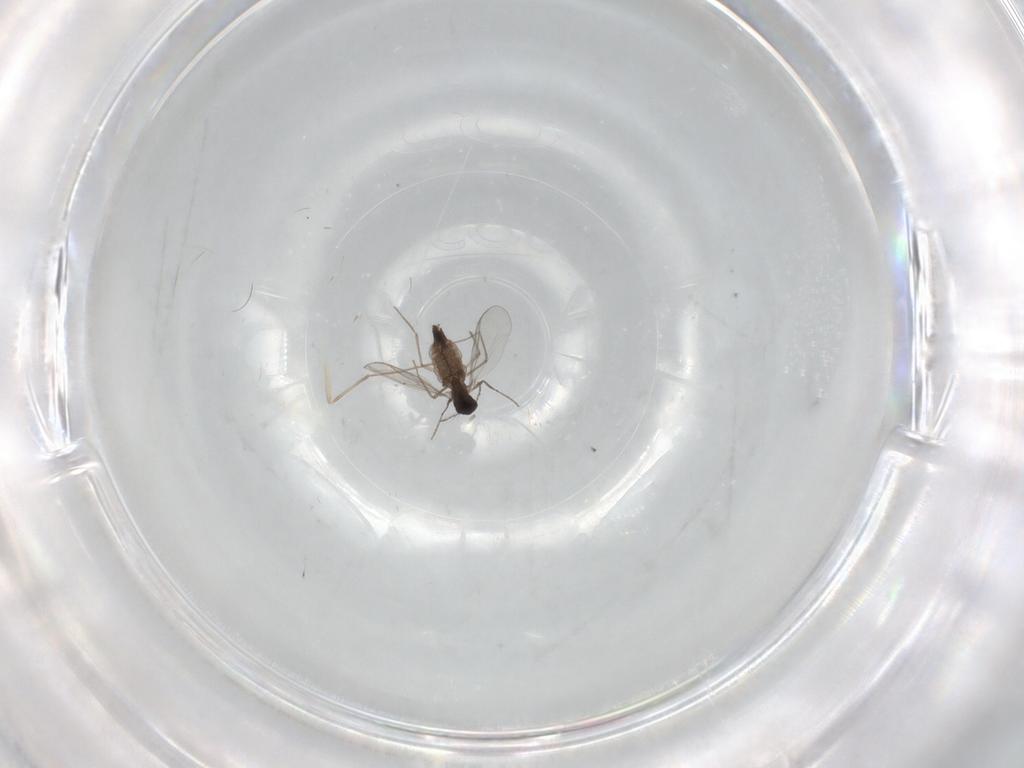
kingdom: Animalia
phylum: Arthropoda
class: Insecta
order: Diptera
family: Chironomidae
